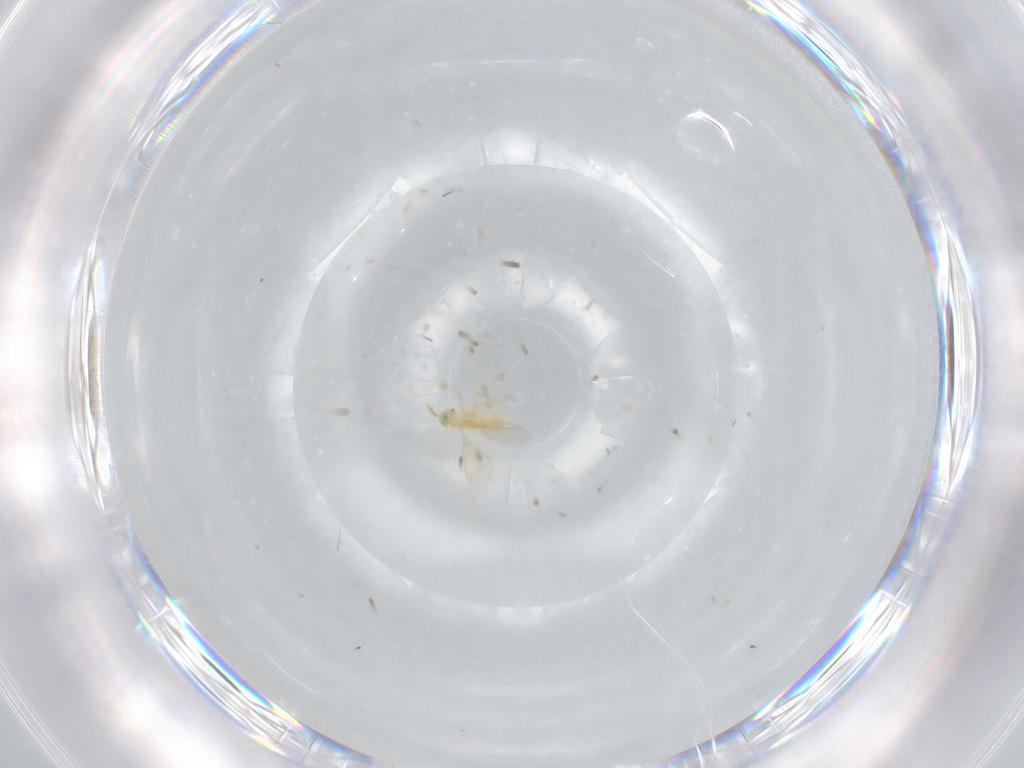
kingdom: Animalia
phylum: Arthropoda
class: Insecta
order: Hymenoptera
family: Aphelinidae
